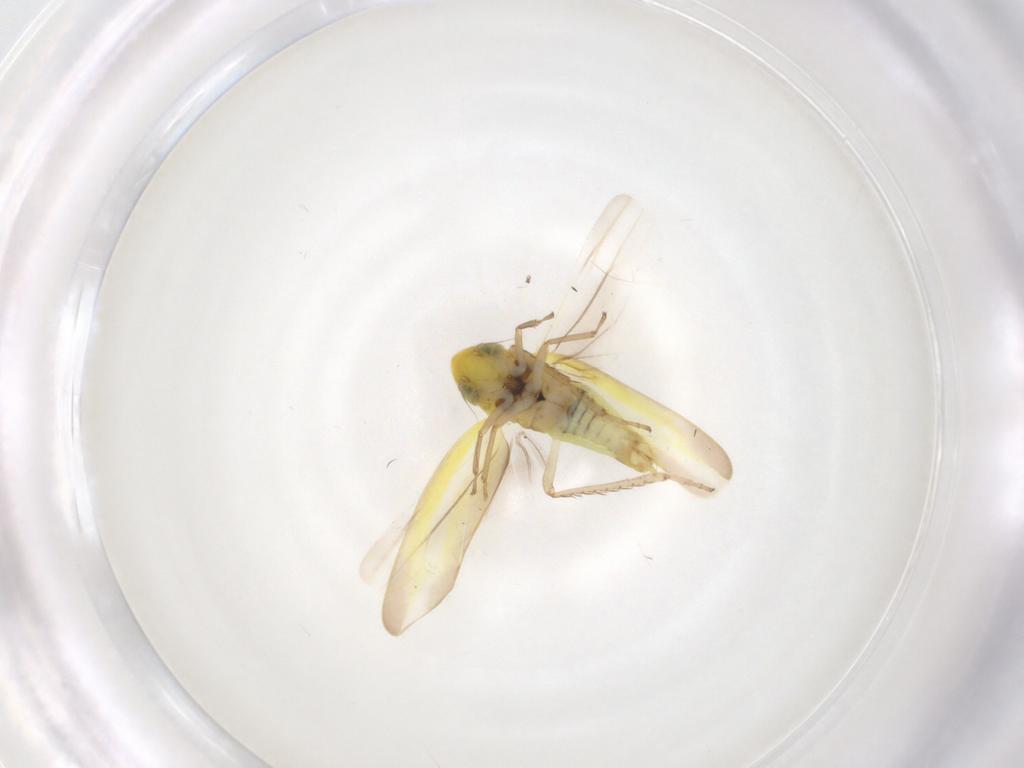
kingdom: Animalia
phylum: Arthropoda
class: Insecta
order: Hemiptera
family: Cicadellidae
